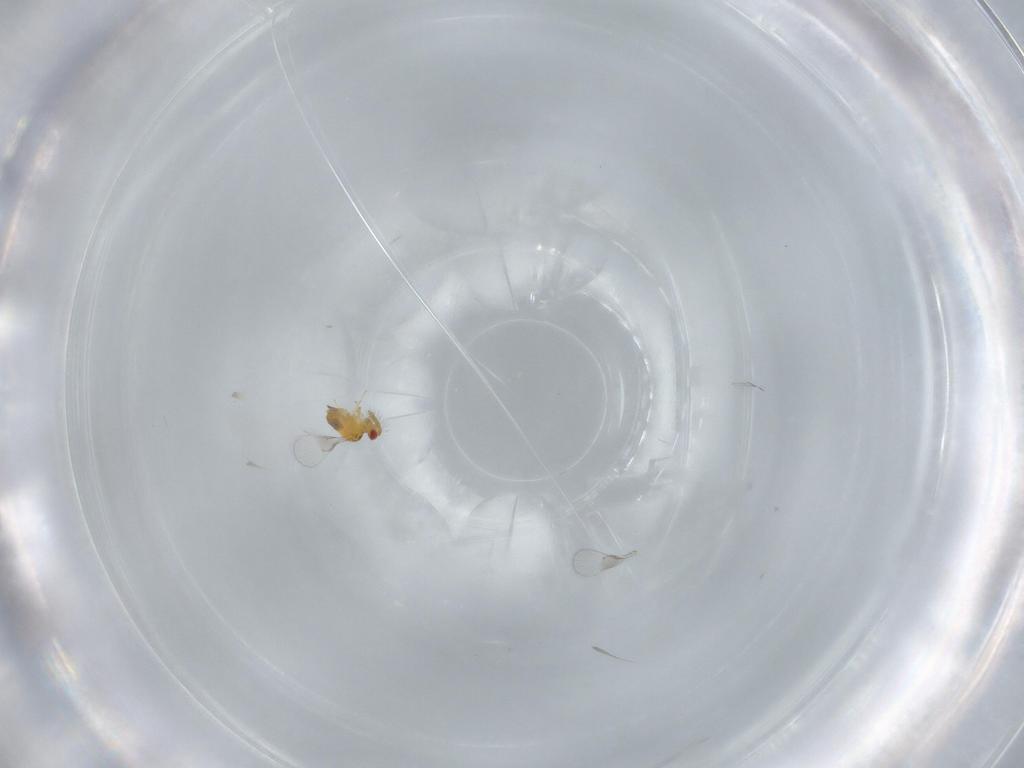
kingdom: Animalia
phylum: Arthropoda
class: Insecta
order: Hymenoptera
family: Trichogrammatidae
